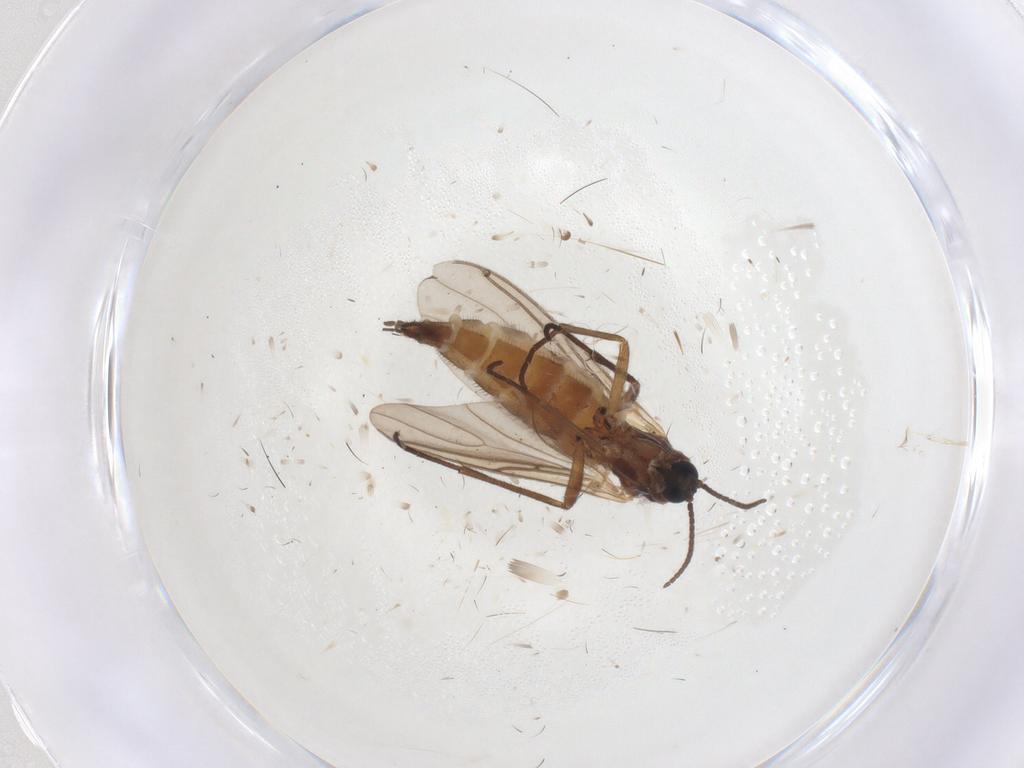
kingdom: Animalia
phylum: Arthropoda
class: Insecta
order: Diptera
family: Sciaridae
